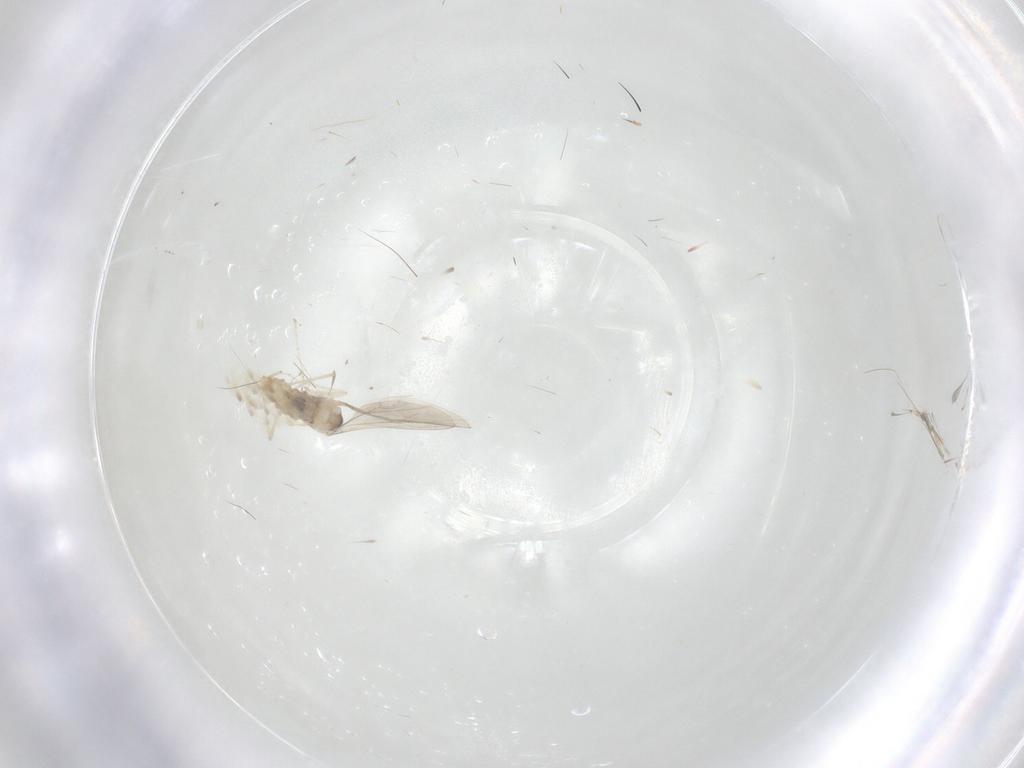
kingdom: Animalia
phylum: Arthropoda
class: Insecta
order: Diptera
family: Cecidomyiidae
